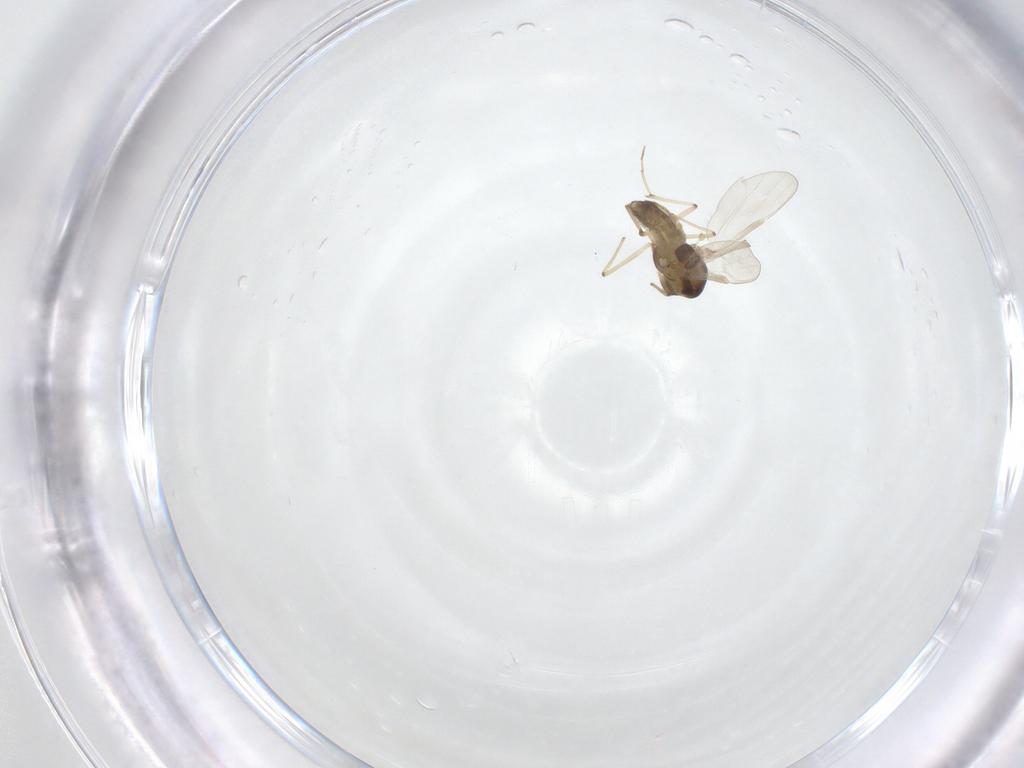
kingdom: Animalia
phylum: Arthropoda
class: Insecta
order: Diptera
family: Chironomidae
